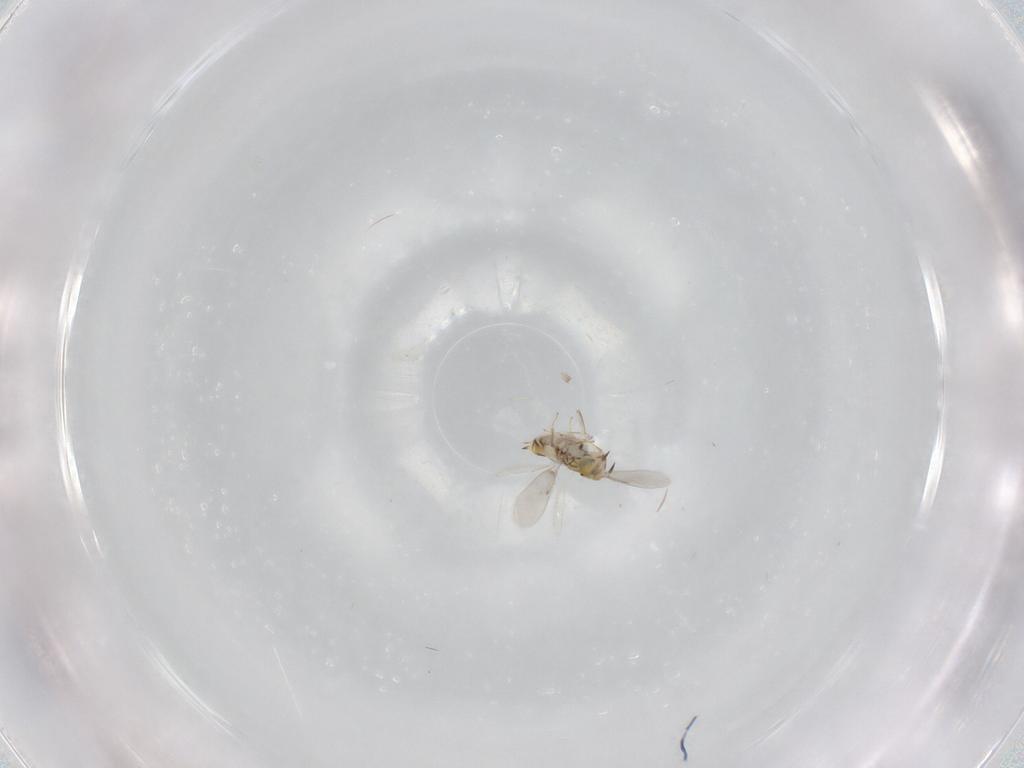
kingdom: Animalia
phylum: Arthropoda
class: Insecta
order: Hymenoptera
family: Aphelinidae
